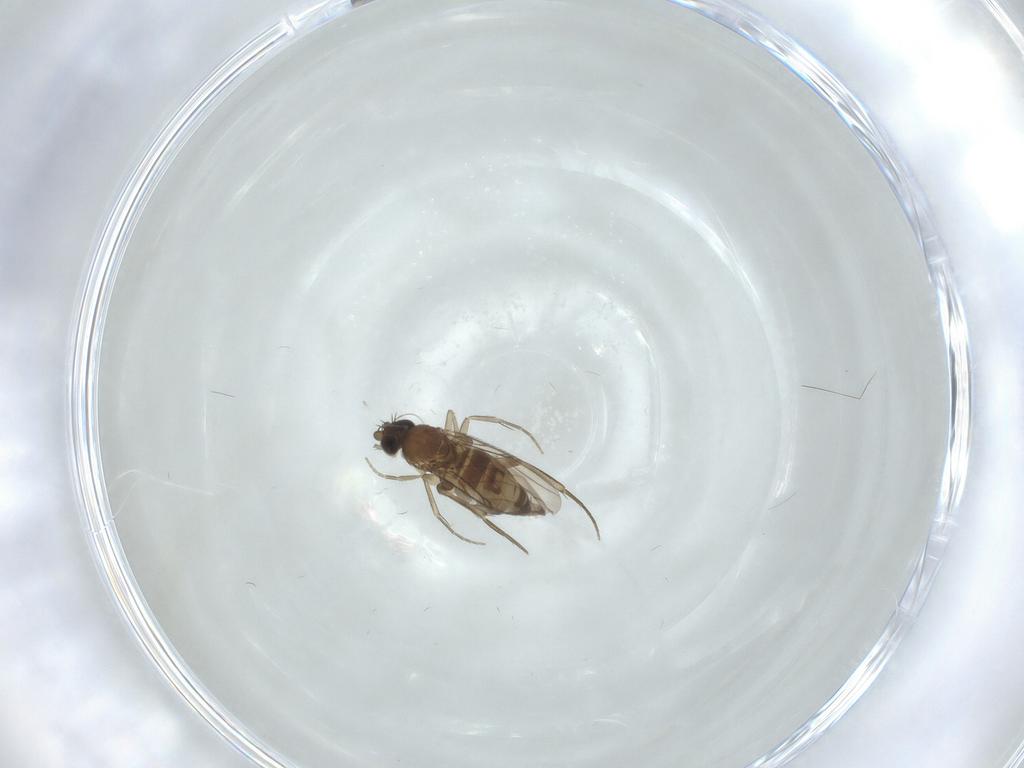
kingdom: Animalia
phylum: Arthropoda
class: Insecta
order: Diptera
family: Phoridae
